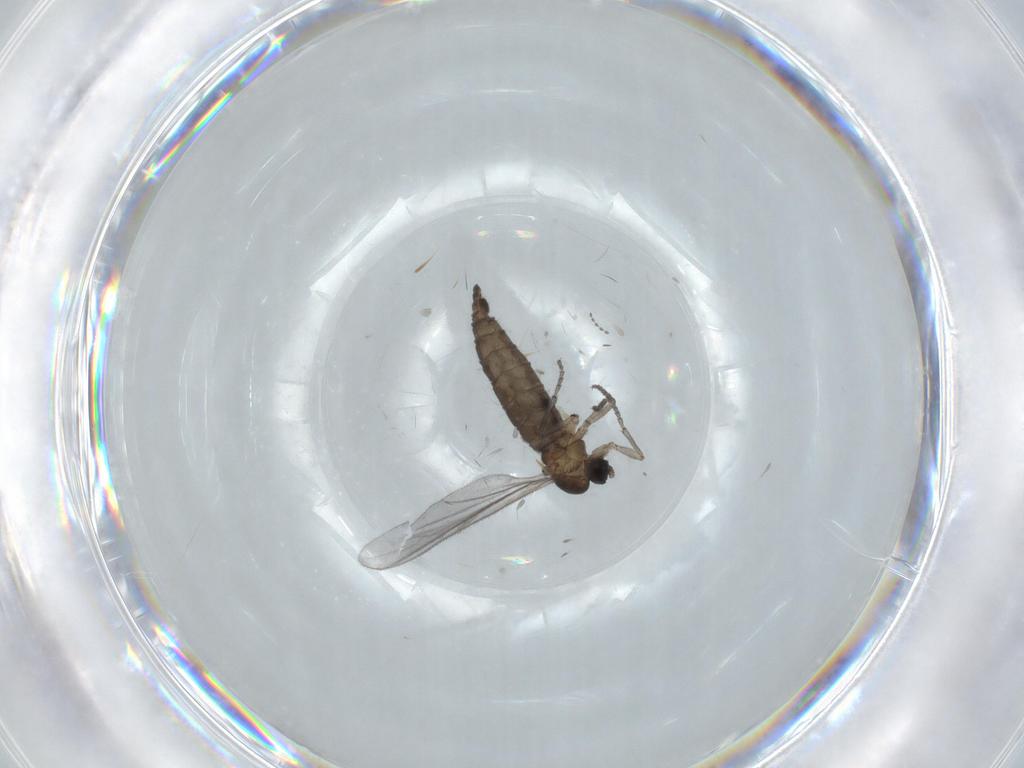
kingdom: Animalia
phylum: Arthropoda
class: Insecta
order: Diptera
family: Sciaridae
